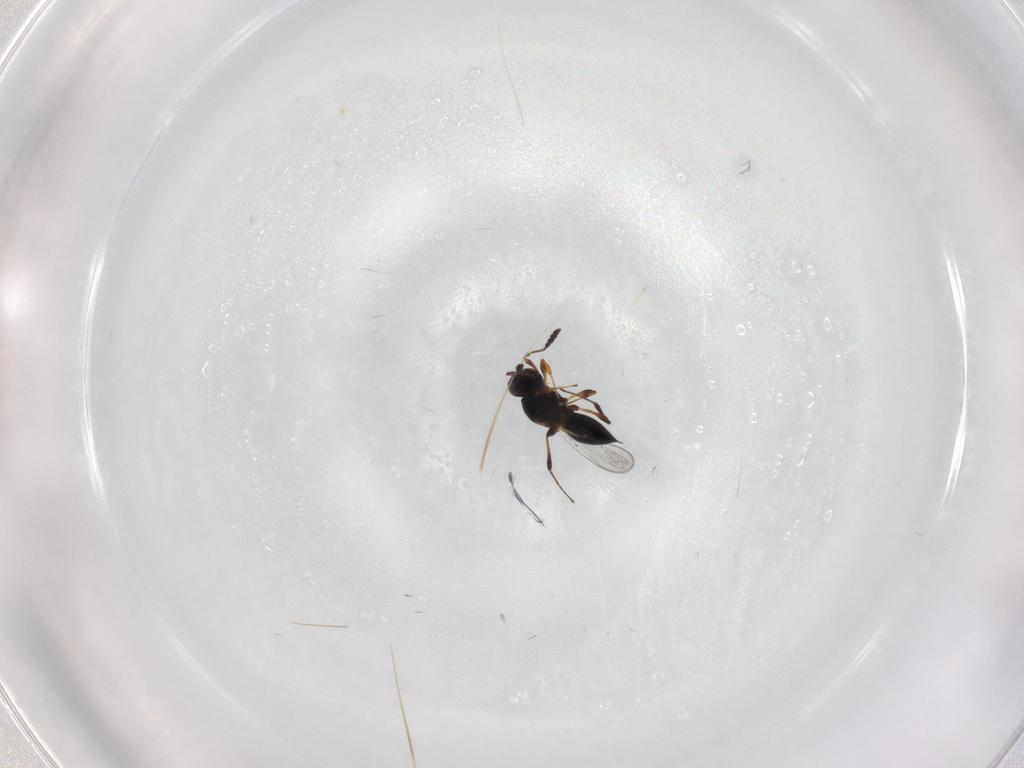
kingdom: Animalia
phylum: Arthropoda
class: Insecta
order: Hymenoptera
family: Platygastridae
